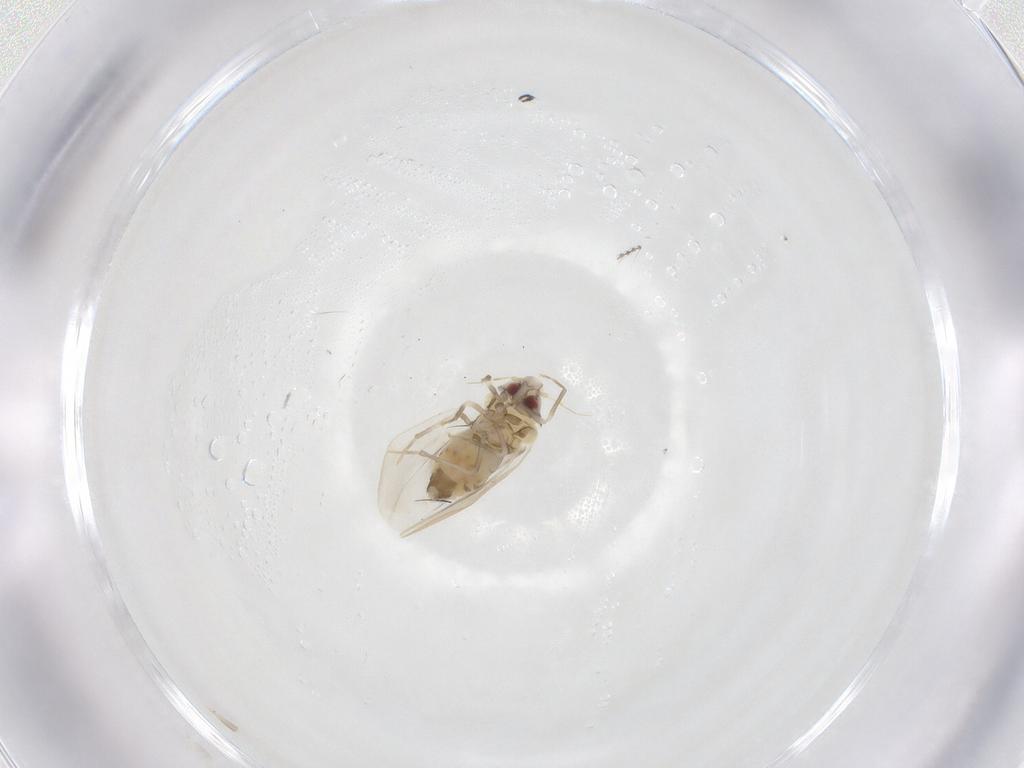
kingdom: Animalia
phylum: Arthropoda
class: Insecta
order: Hemiptera
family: Aleyrodidae
